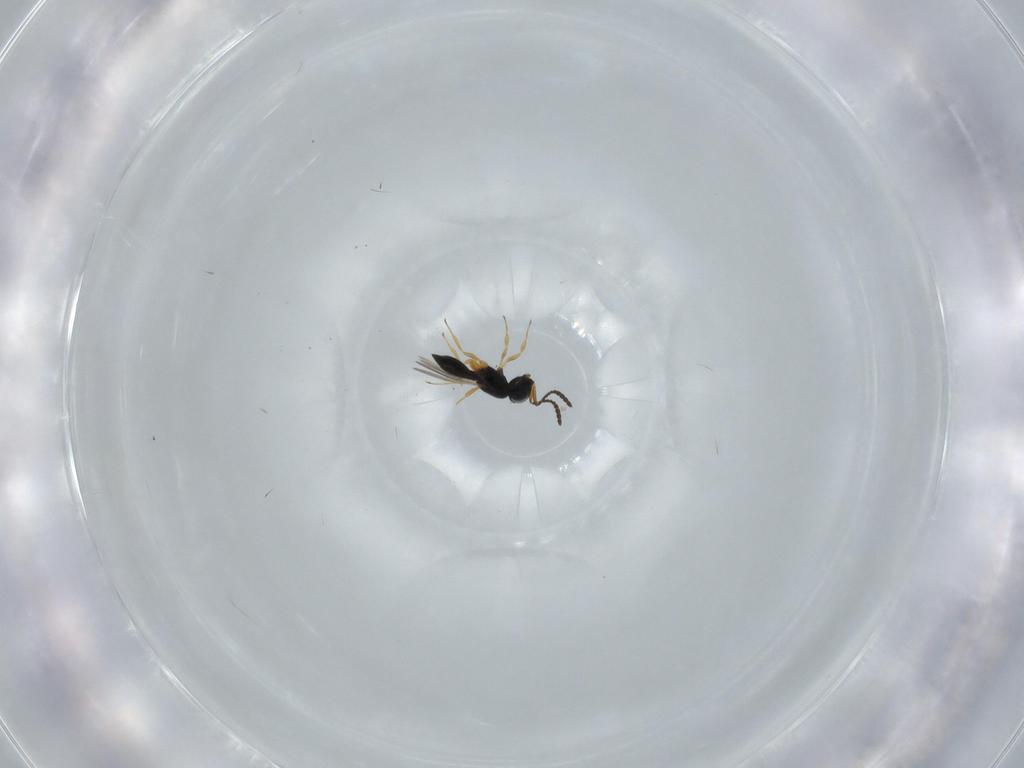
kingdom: Animalia
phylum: Arthropoda
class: Insecta
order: Hymenoptera
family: Scelionidae
